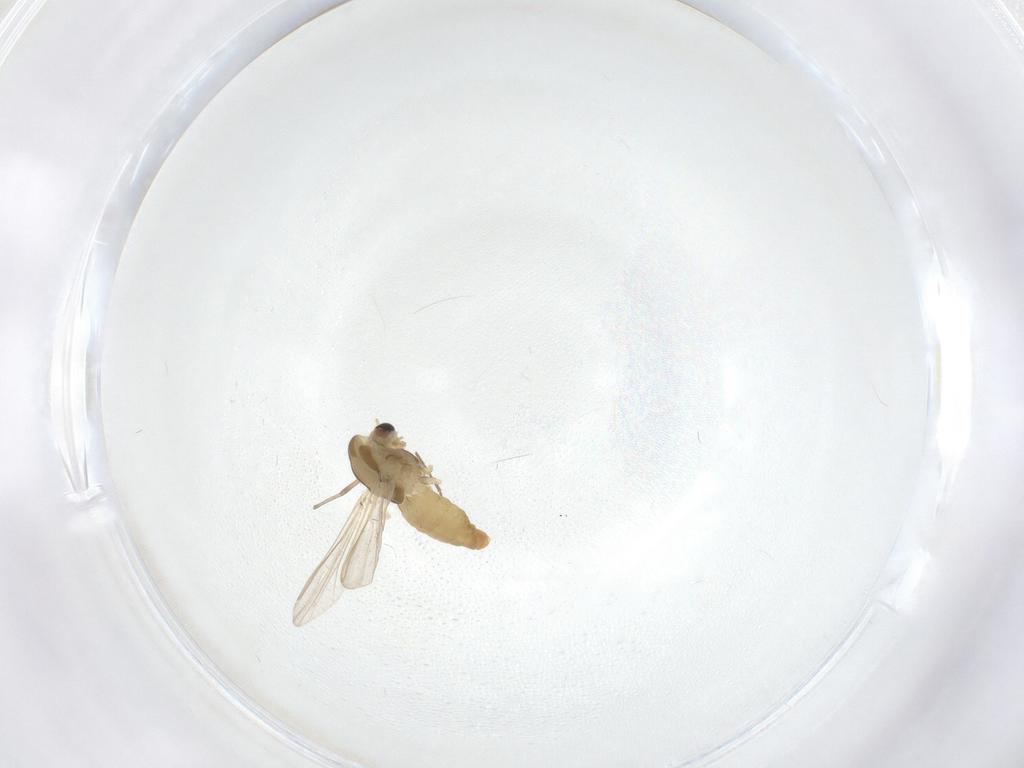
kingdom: Animalia
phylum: Arthropoda
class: Insecta
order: Diptera
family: Chironomidae
